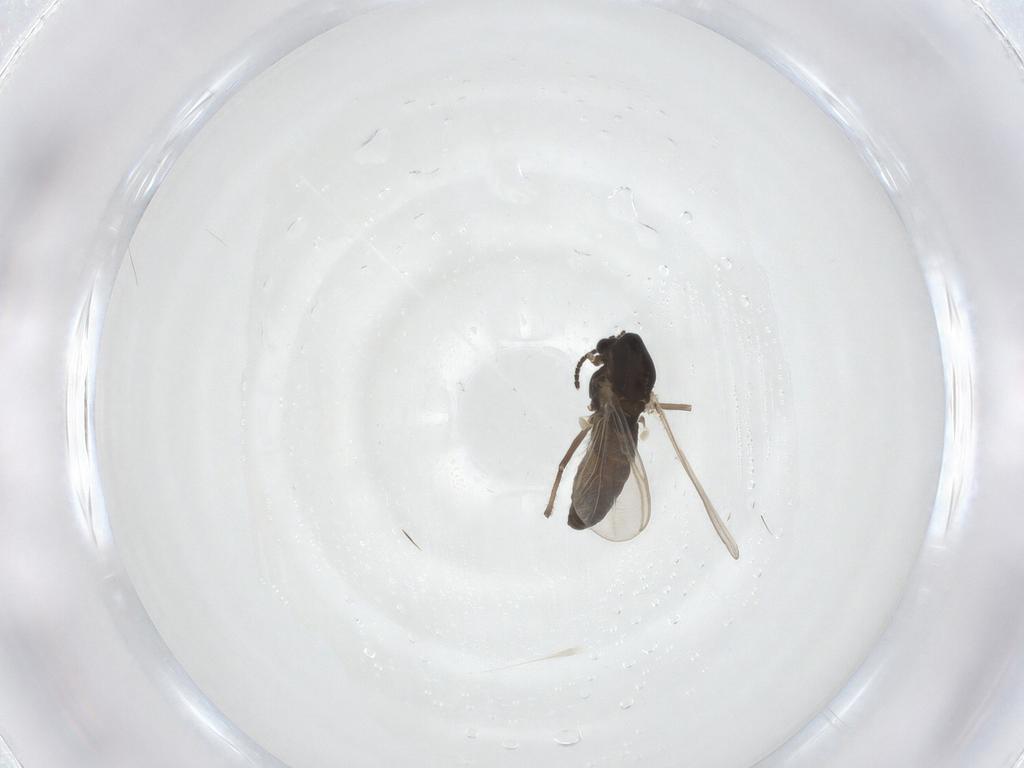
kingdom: Animalia
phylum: Arthropoda
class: Insecta
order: Diptera
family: Chironomidae
